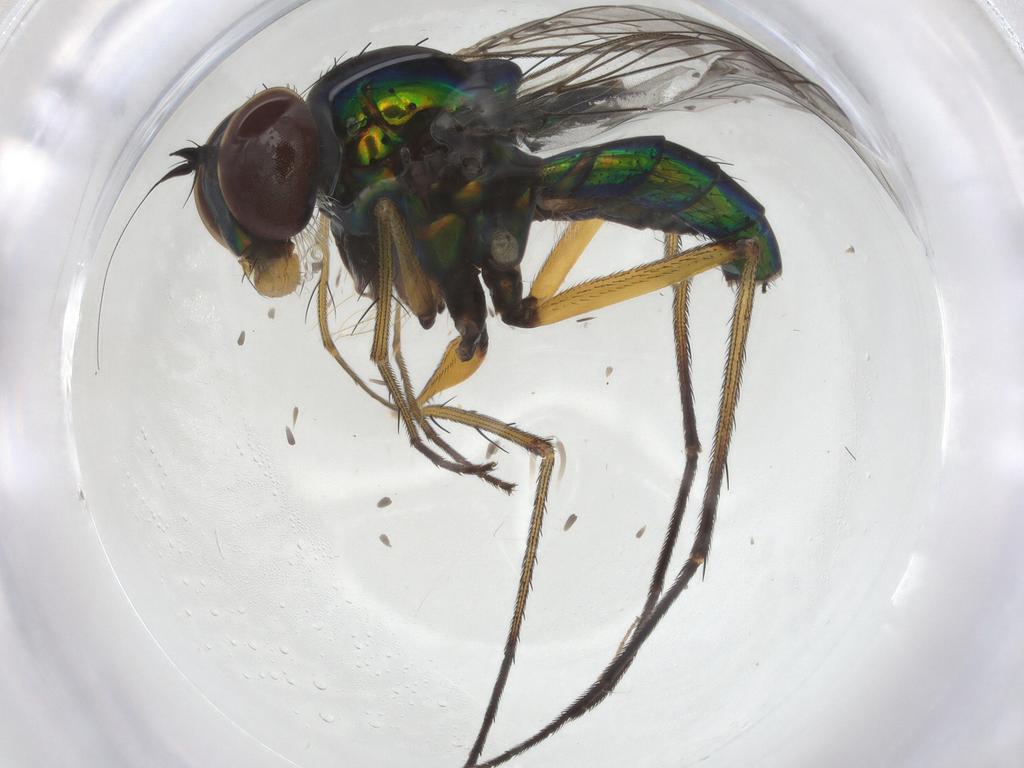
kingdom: Animalia
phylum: Arthropoda
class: Insecta
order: Diptera
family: Dolichopodidae
